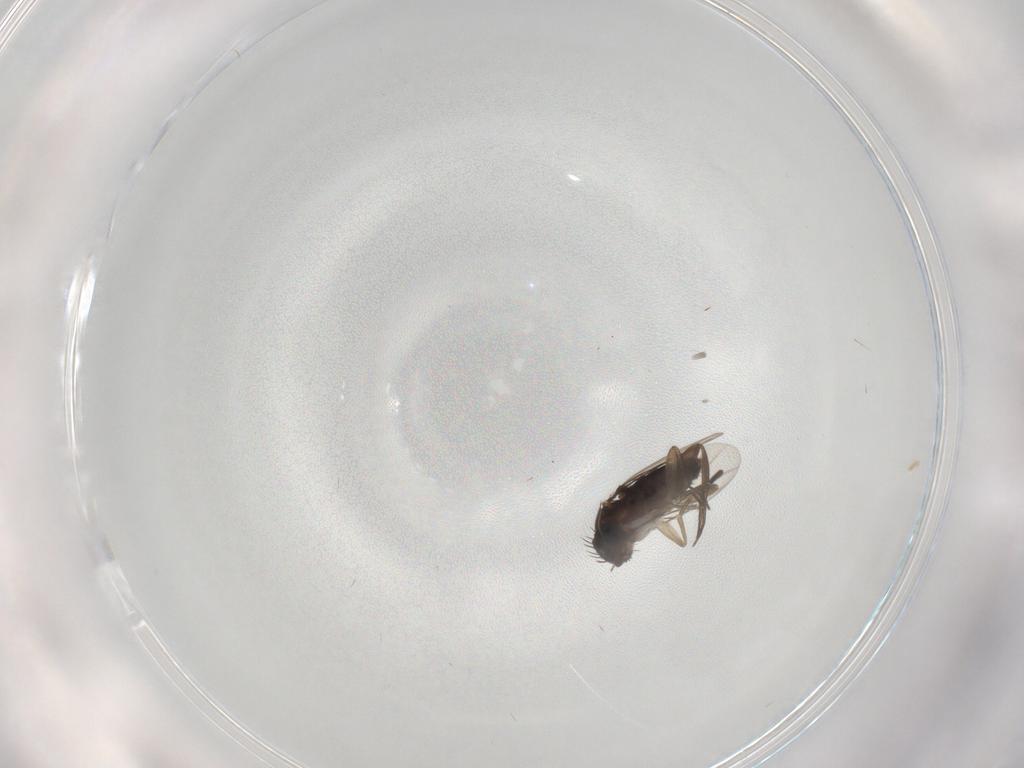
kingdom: Animalia
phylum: Arthropoda
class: Insecta
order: Diptera
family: Phoridae
